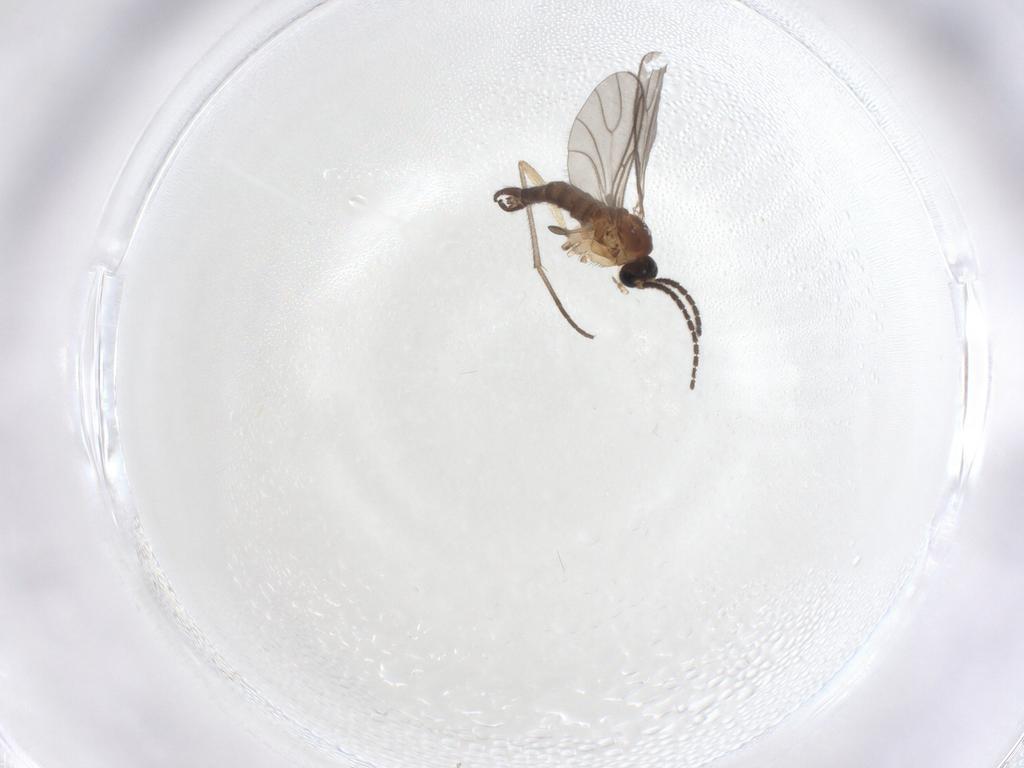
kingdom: Animalia
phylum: Arthropoda
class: Insecta
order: Diptera
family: Sciaridae
